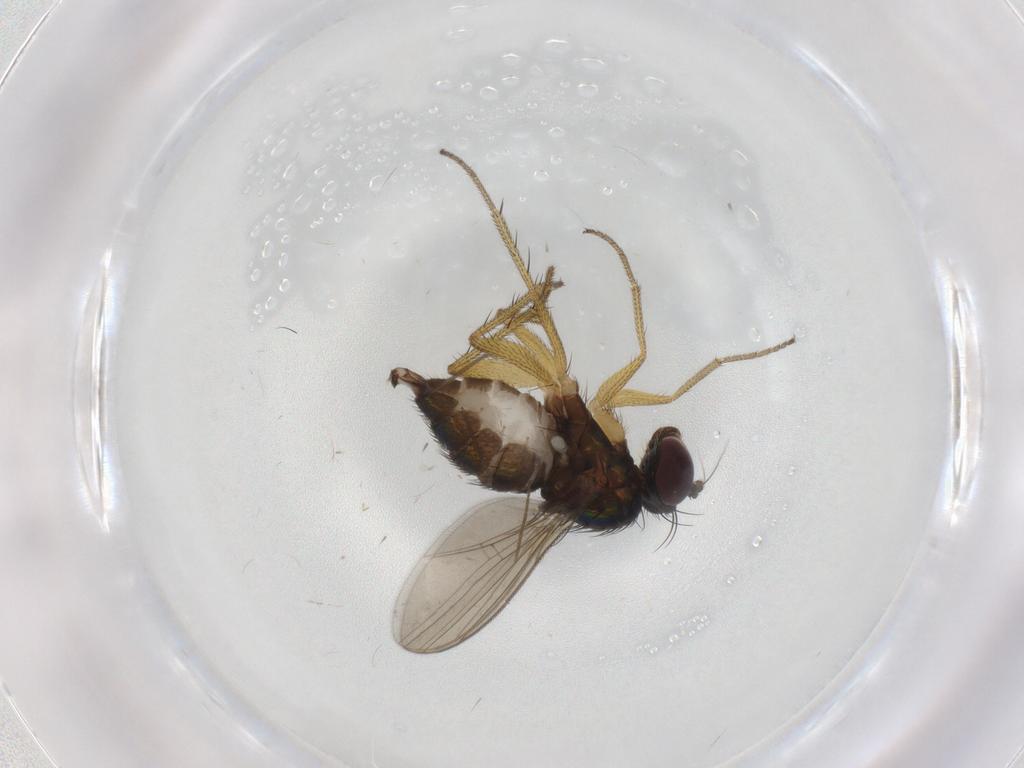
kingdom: Animalia
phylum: Arthropoda
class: Insecta
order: Diptera
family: Chironomidae
